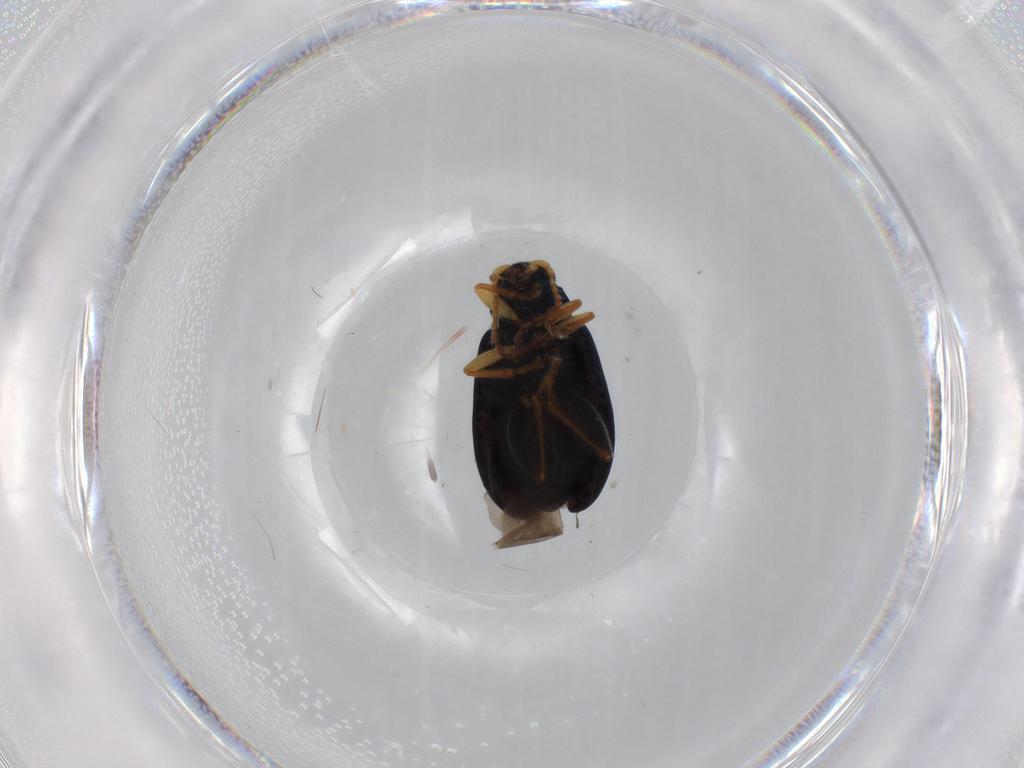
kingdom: Animalia
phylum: Arthropoda
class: Insecta
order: Coleoptera
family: Chrysomelidae
